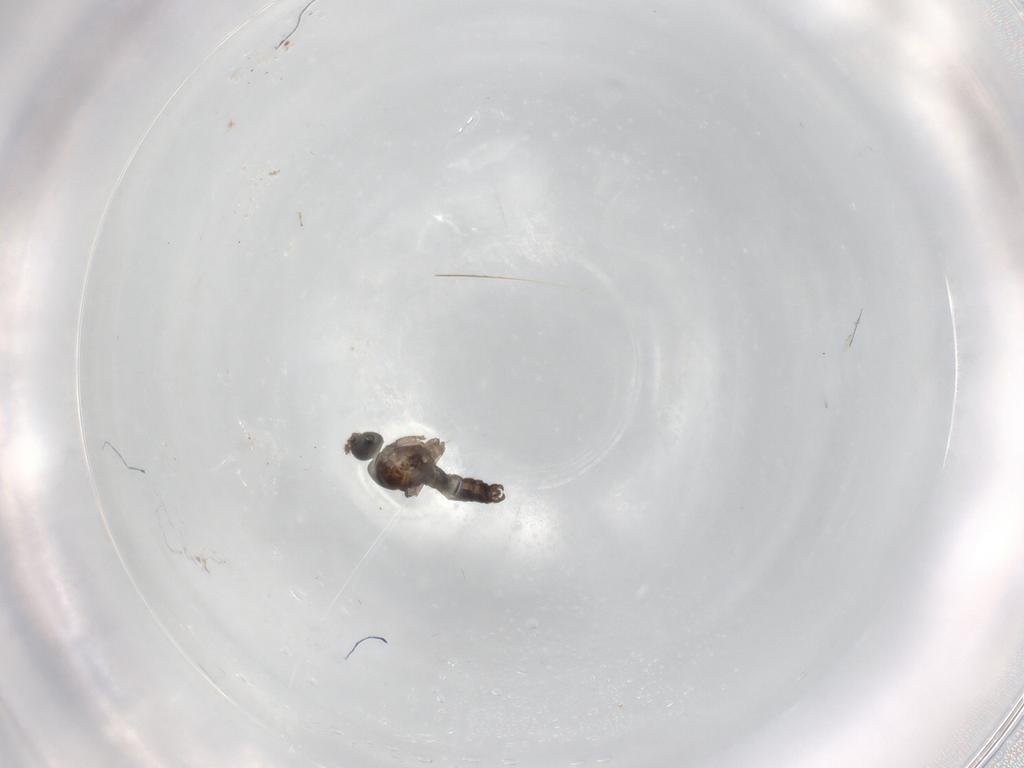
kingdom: Animalia
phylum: Arthropoda
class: Insecta
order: Diptera
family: Sciaridae
